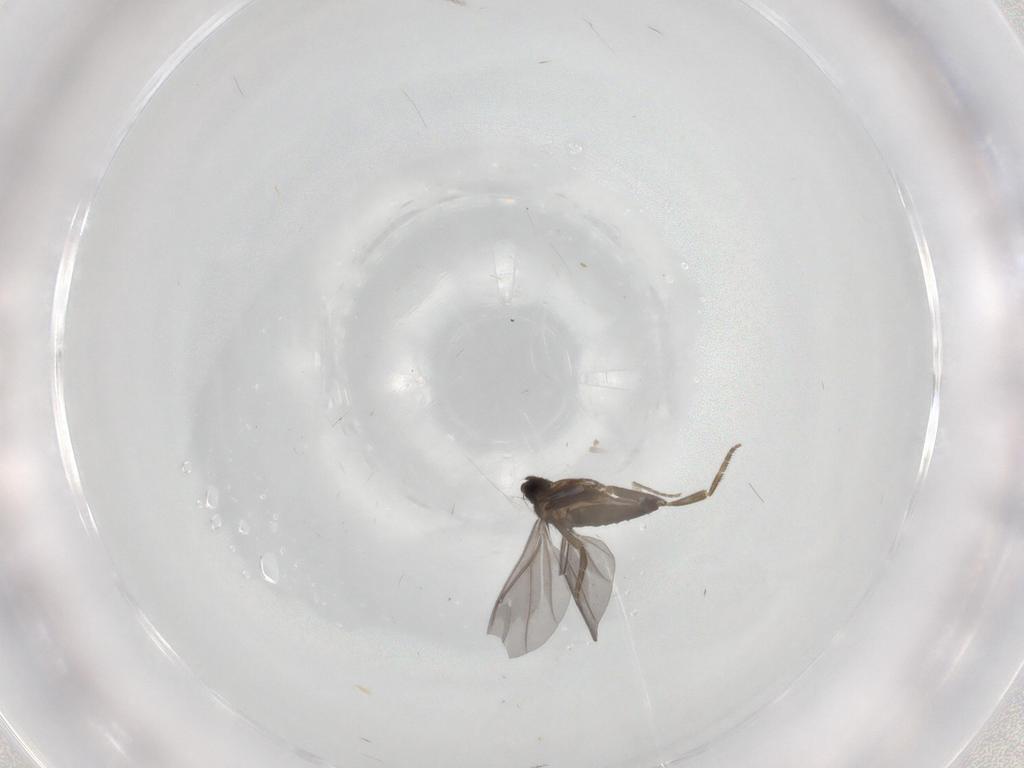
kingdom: Animalia
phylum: Arthropoda
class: Insecta
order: Diptera
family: Phoridae
